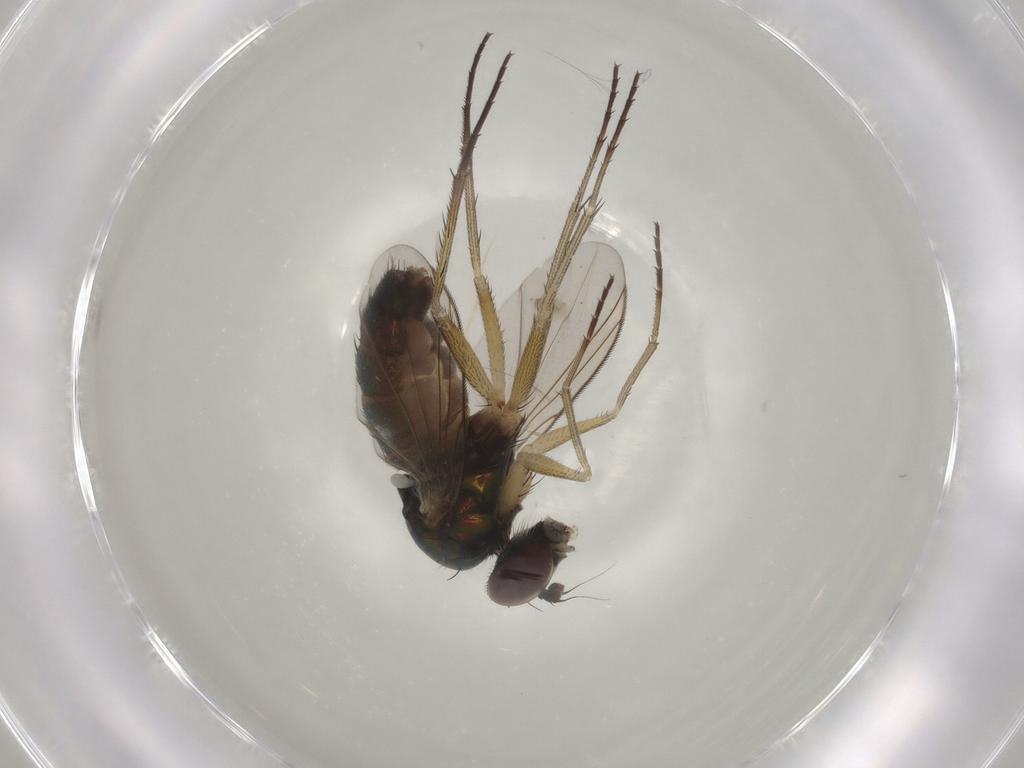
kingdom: Animalia
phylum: Arthropoda
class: Insecta
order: Diptera
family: Dolichopodidae
